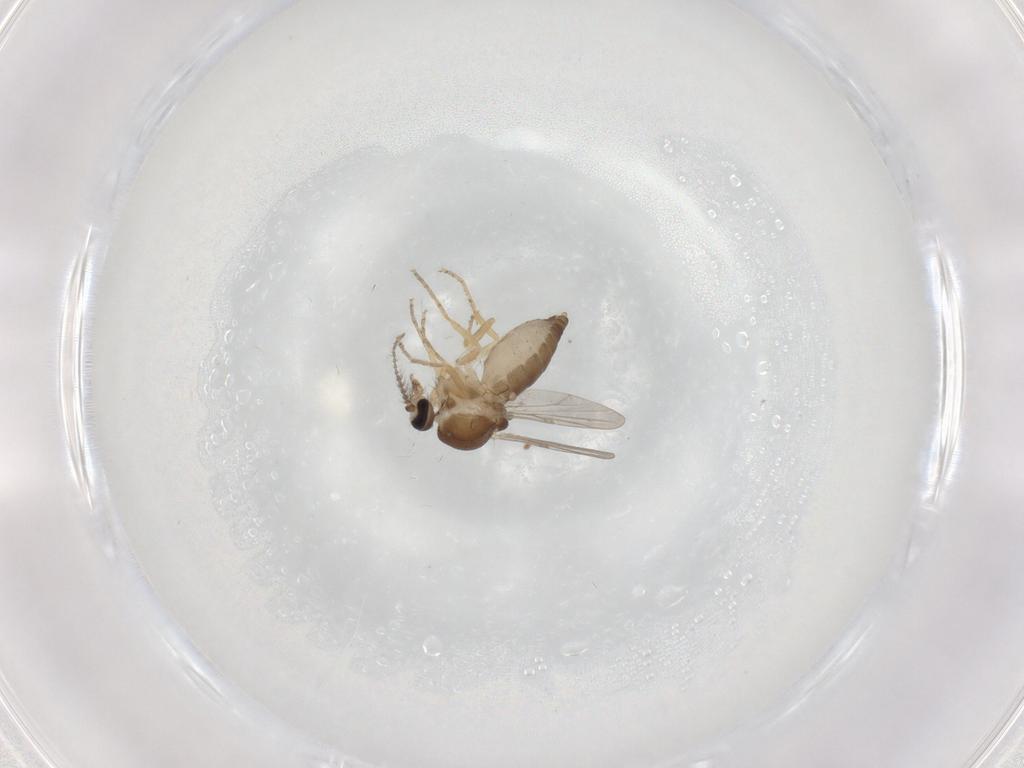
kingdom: Animalia
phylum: Arthropoda
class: Insecta
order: Diptera
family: Ceratopogonidae
